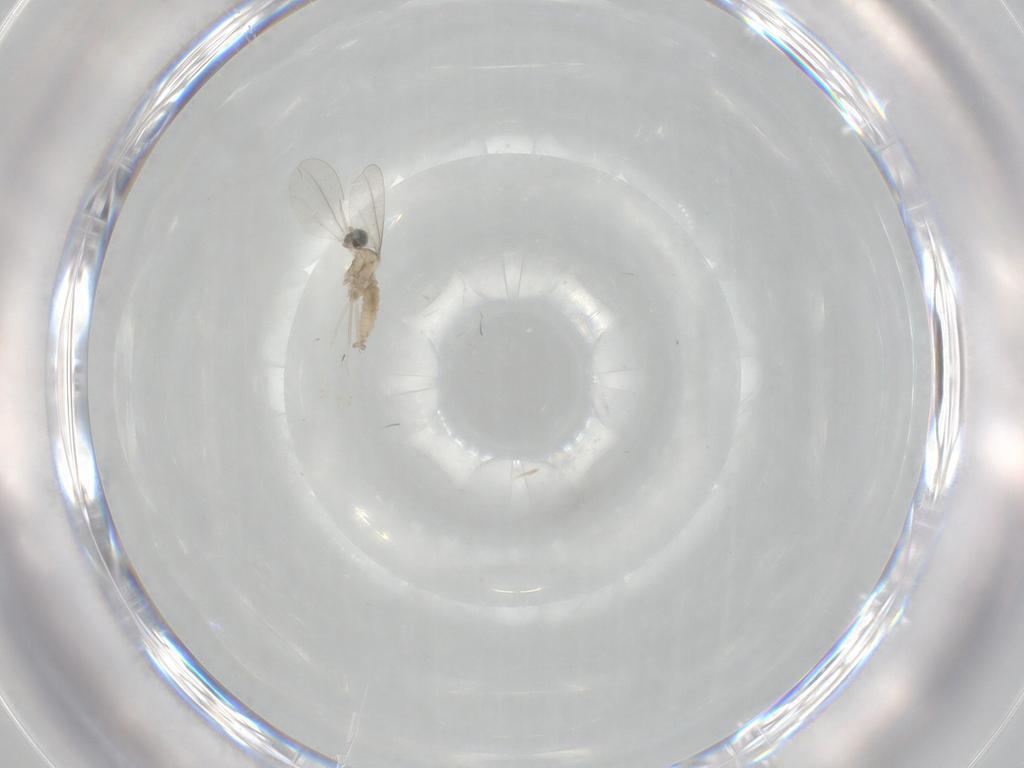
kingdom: Animalia
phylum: Arthropoda
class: Insecta
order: Diptera
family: Cecidomyiidae
